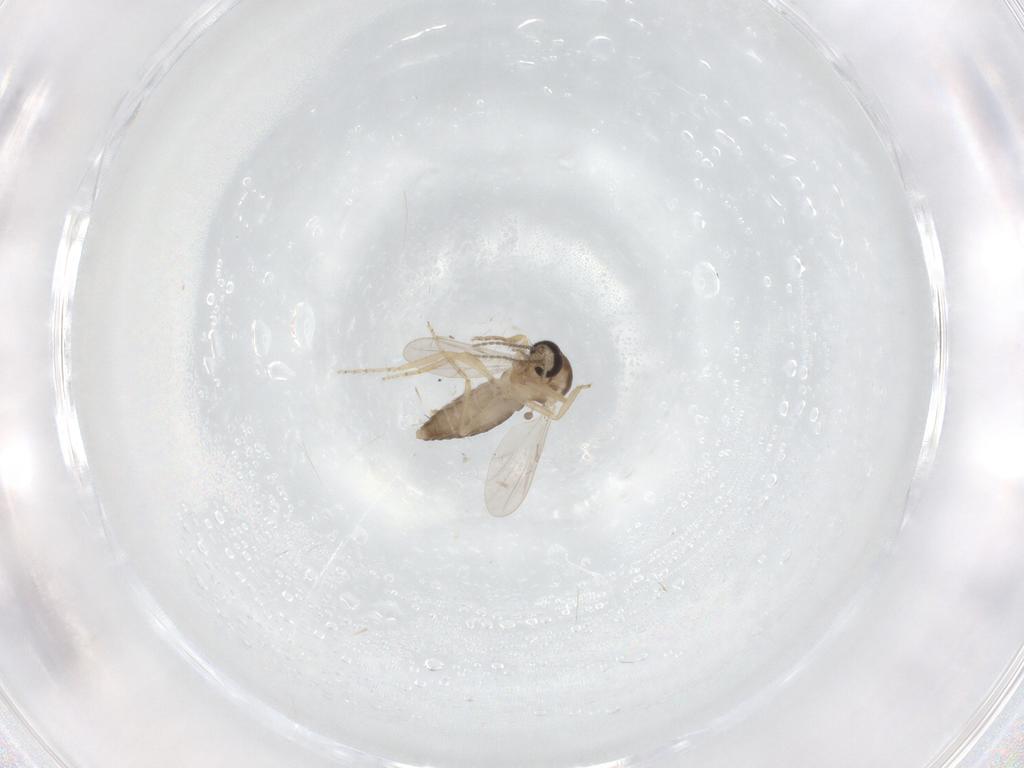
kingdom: Animalia
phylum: Arthropoda
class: Insecta
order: Diptera
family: Ceratopogonidae
